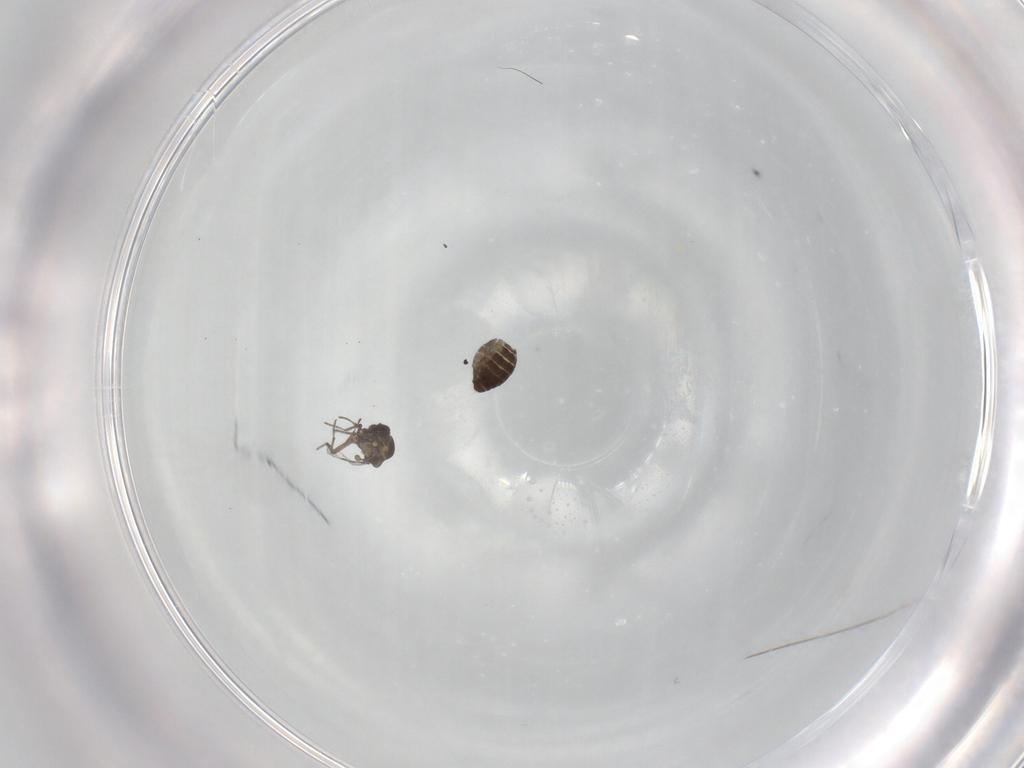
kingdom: Animalia
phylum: Arthropoda
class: Insecta
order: Diptera
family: Ceratopogonidae
